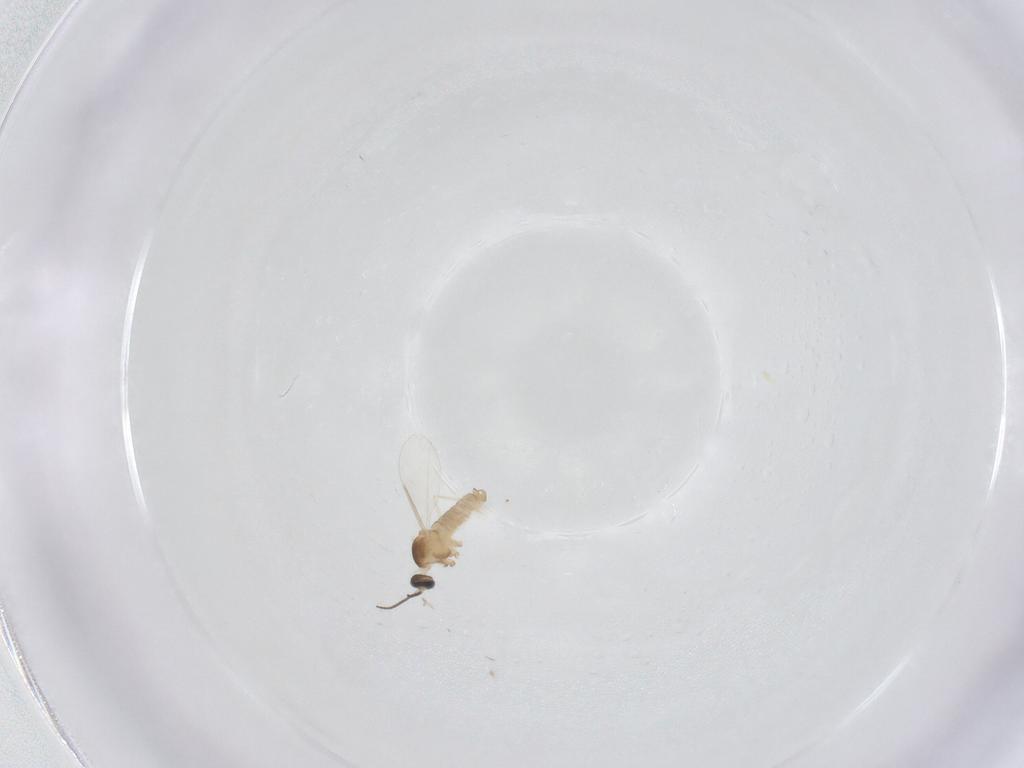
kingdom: Animalia
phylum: Arthropoda
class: Insecta
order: Diptera
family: Cecidomyiidae
